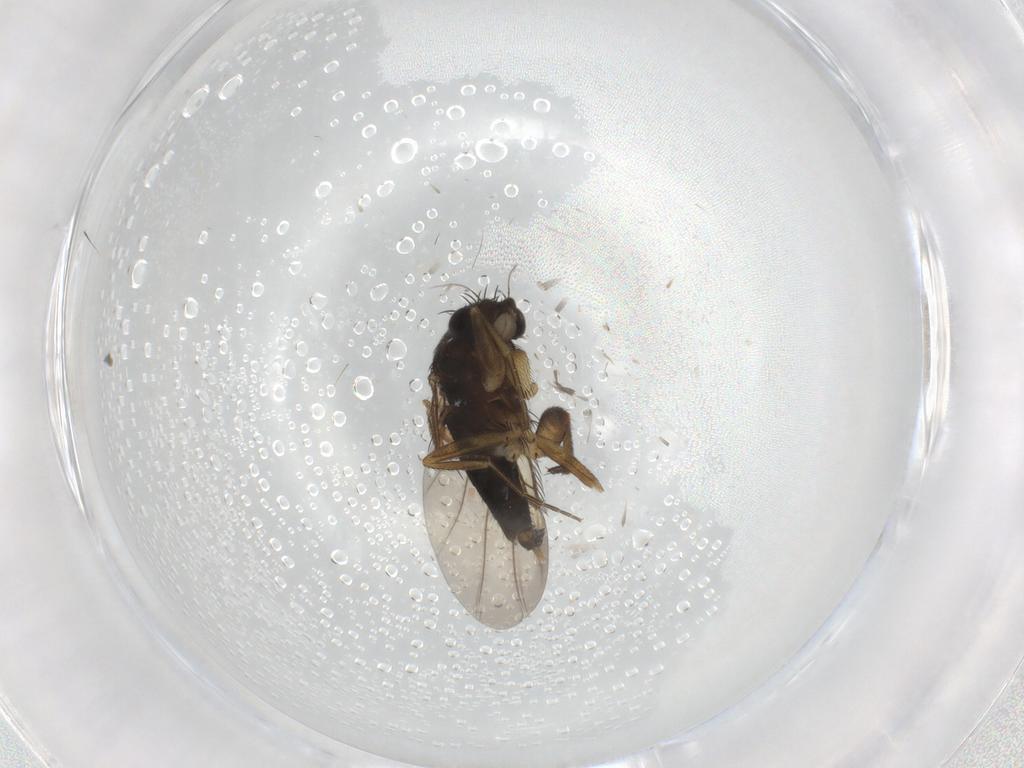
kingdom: Animalia
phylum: Arthropoda
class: Insecta
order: Diptera
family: Phoridae
